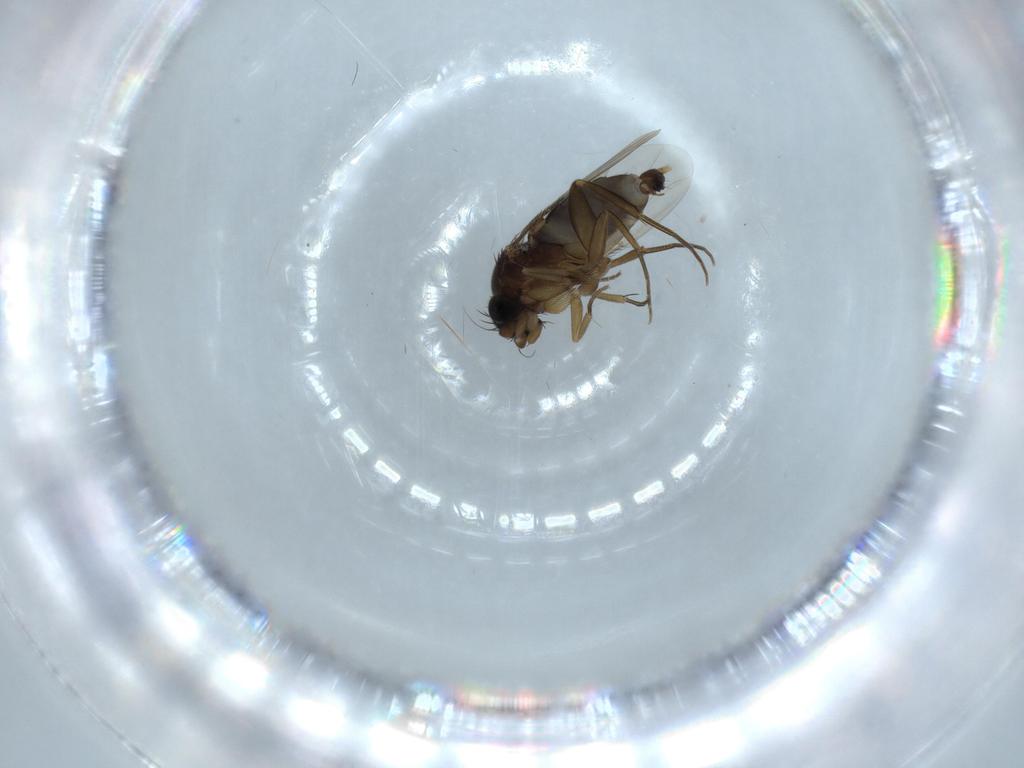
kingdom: Animalia
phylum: Arthropoda
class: Insecta
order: Diptera
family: Phoridae
